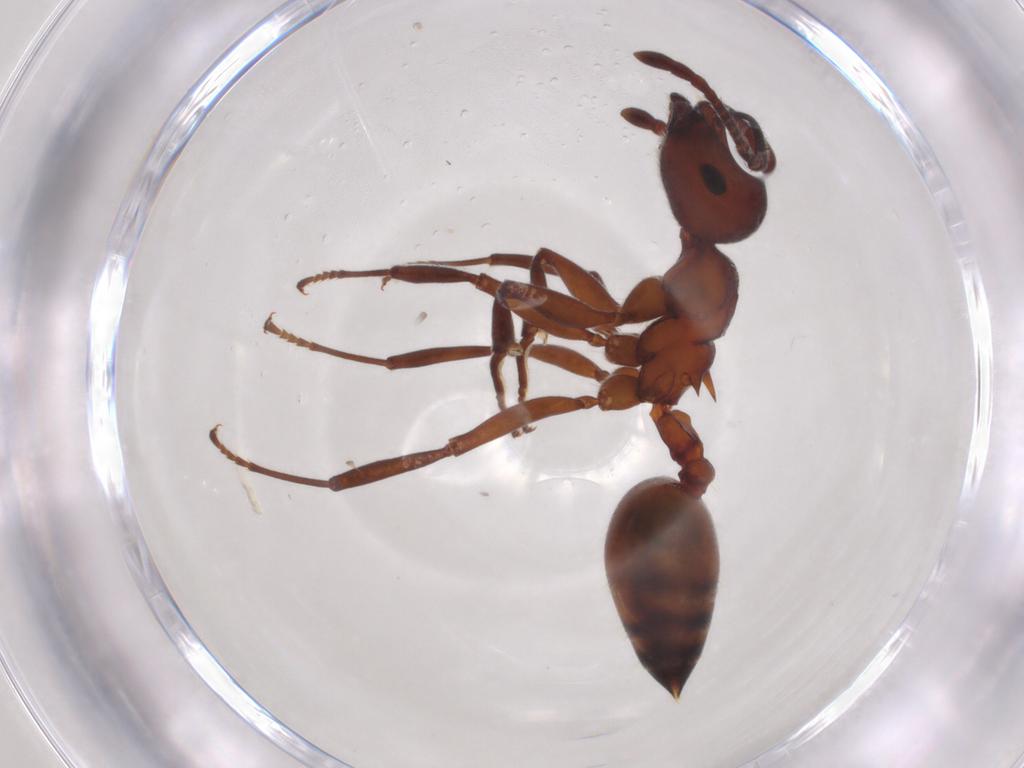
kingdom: Animalia
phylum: Arthropoda
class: Insecta
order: Hymenoptera
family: Formicidae
